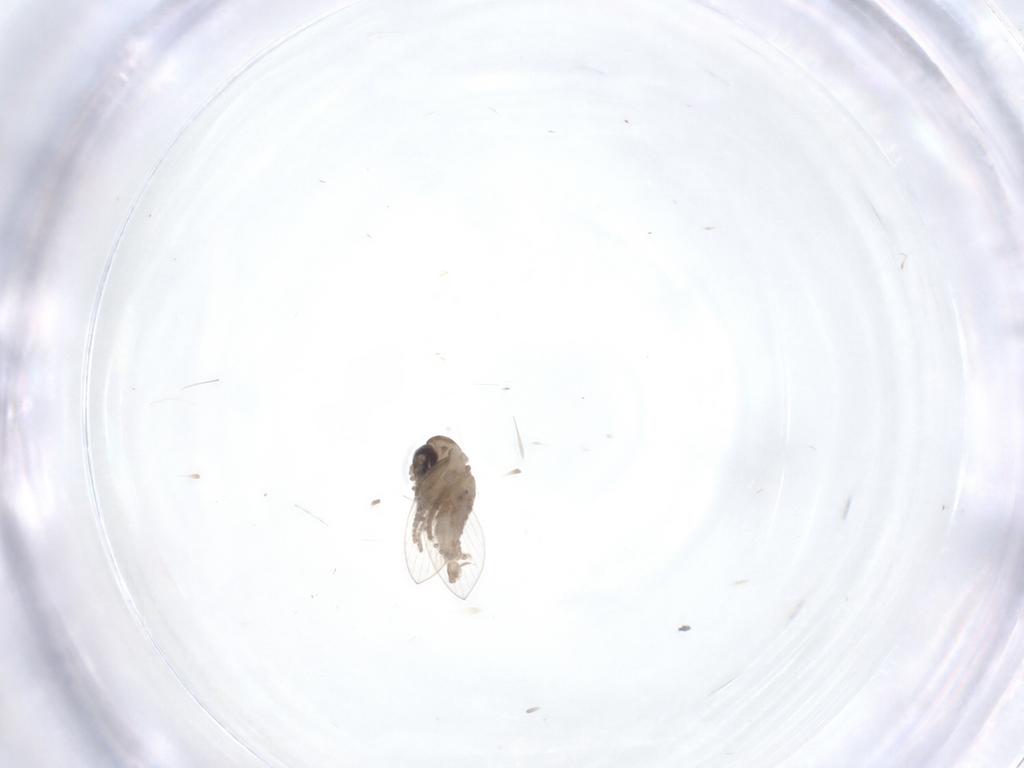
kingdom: Animalia
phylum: Arthropoda
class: Insecta
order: Diptera
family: Psychodidae
